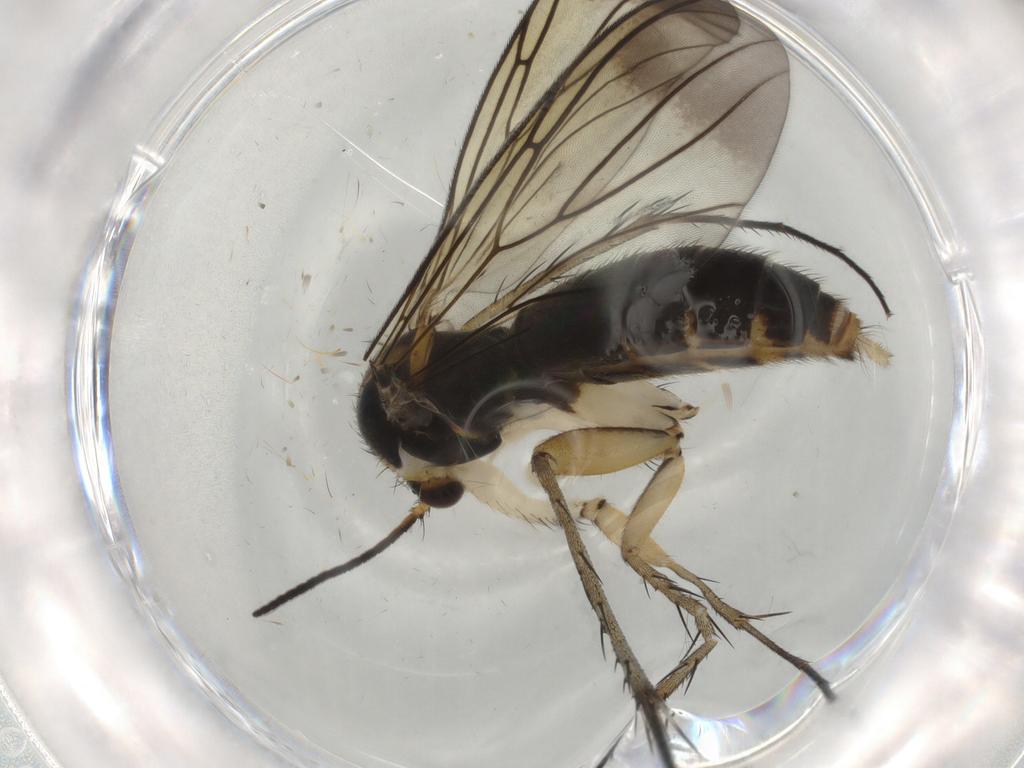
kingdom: Animalia
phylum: Arthropoda
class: Insecta
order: Diptera
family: Mycetophilidae
